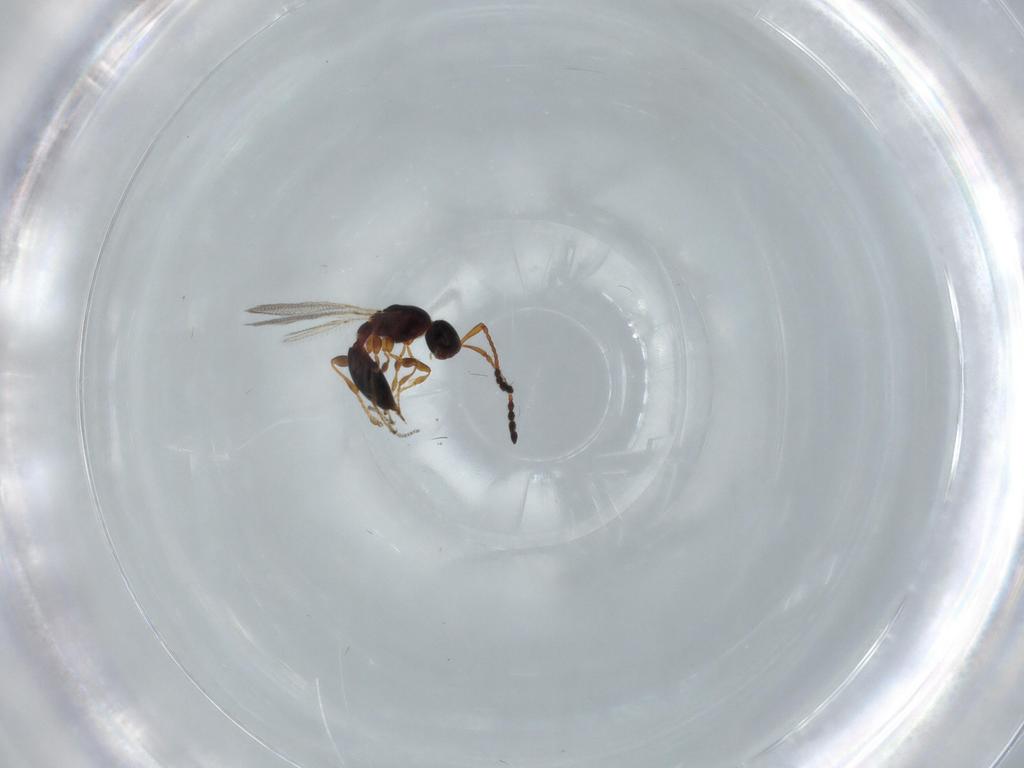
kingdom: Animalia
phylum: Arthropoda
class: Insecta
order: Hymenoptera
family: Diapriidae
